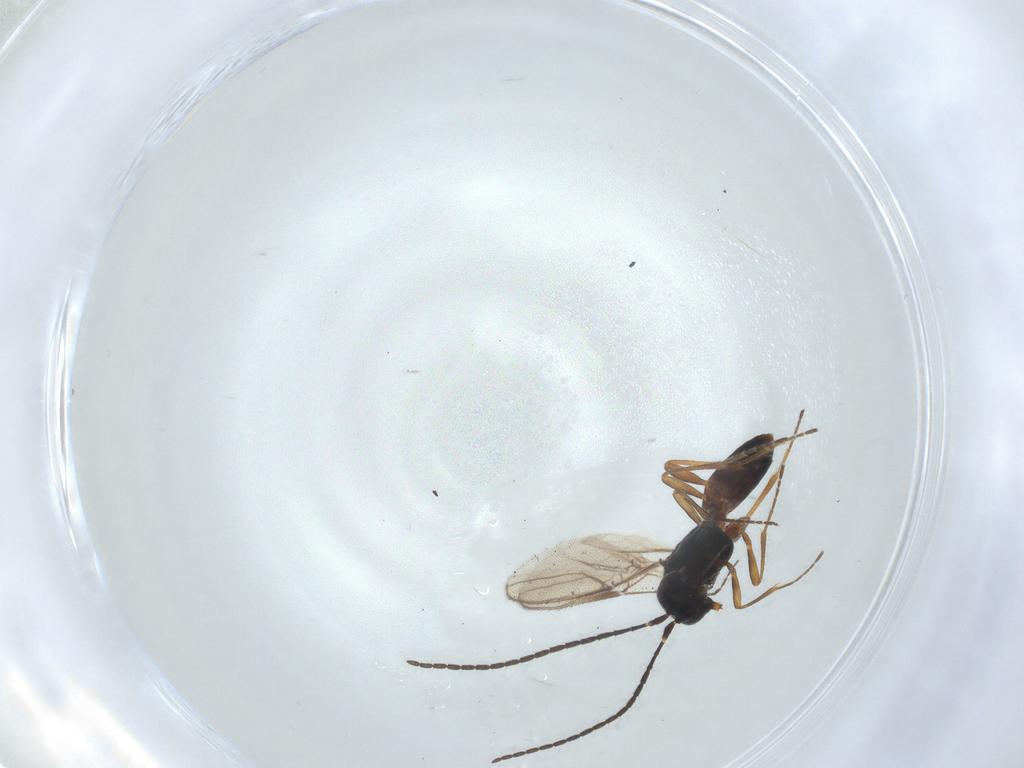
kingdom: Animalia
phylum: Arthropoda
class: Insecta
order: Hymenoptera
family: Braconidae
